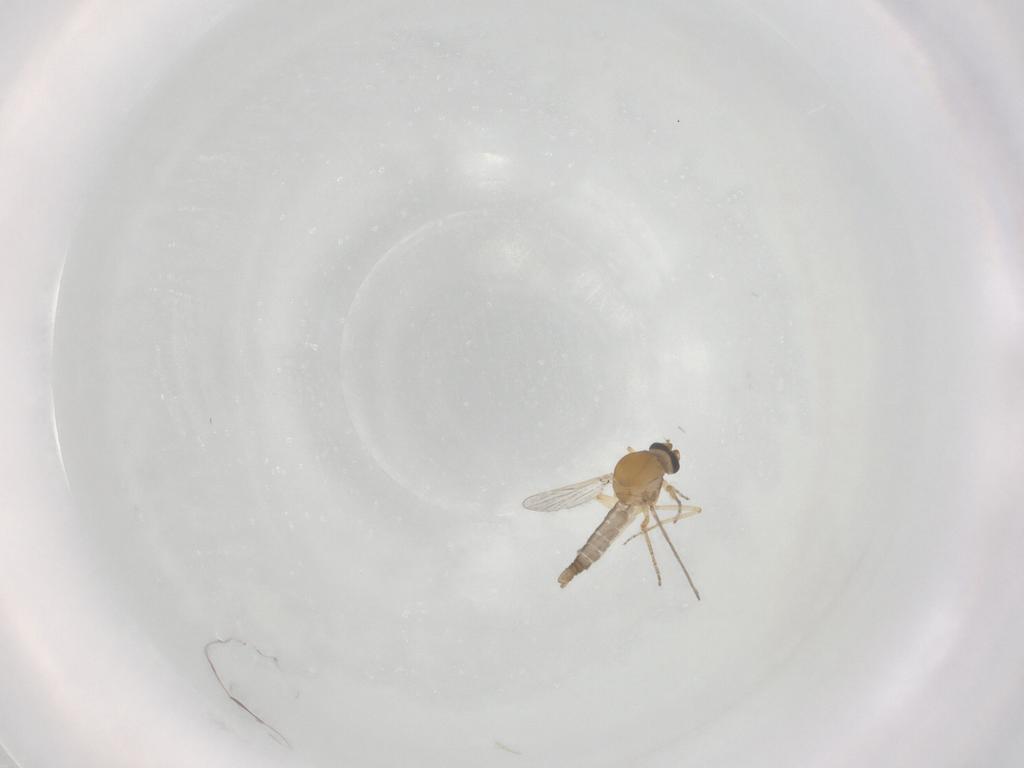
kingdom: Animalia
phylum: Arthropoda
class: Insecta
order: Diptera
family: Ceratopogonidae
